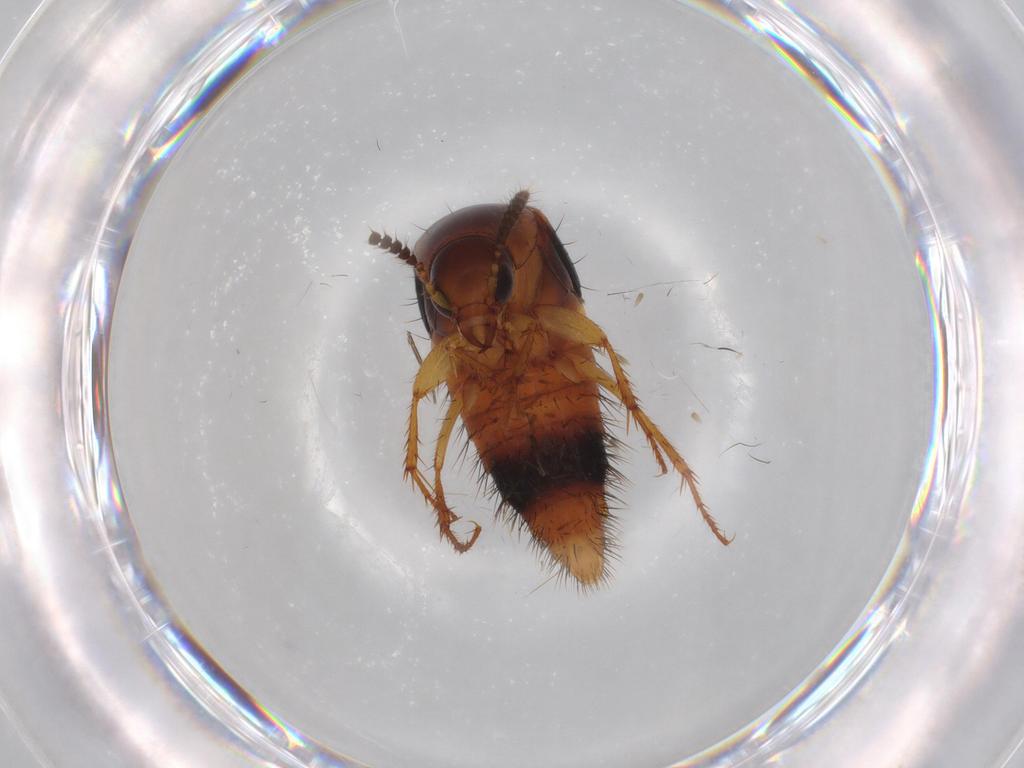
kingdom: Animalia
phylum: Arthropoda
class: Insecta
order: Coleoptera
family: Staphylinidae
